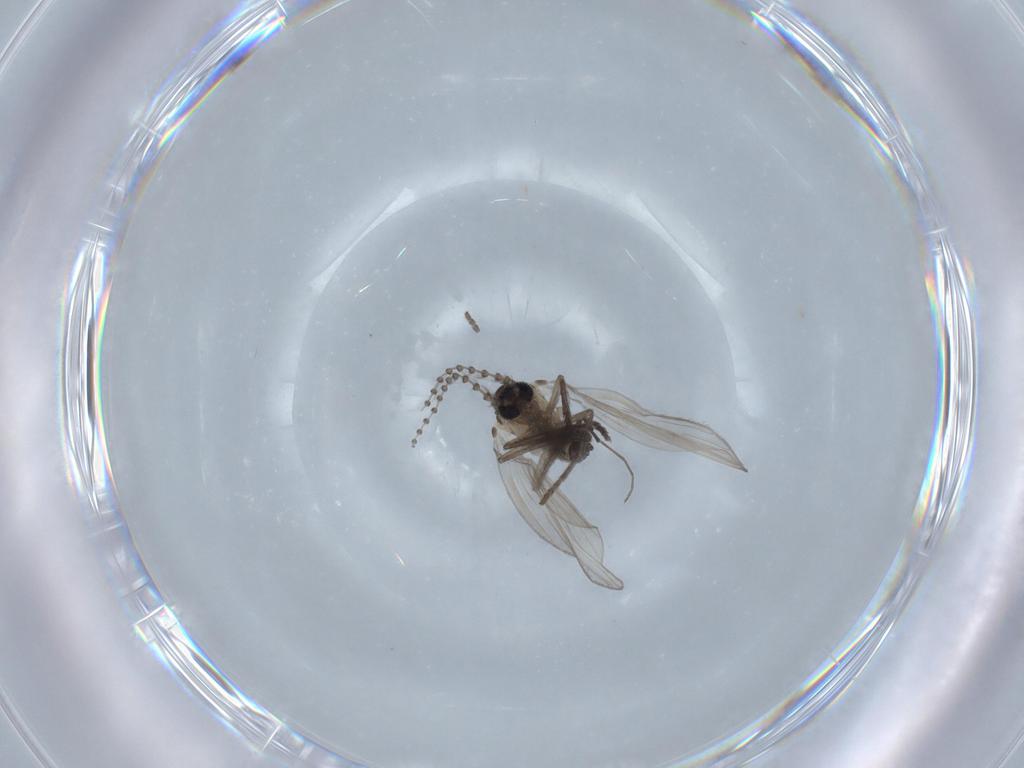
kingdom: Animalia
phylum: Arthropoda
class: Insecta
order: Diptera
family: Psychodidae
